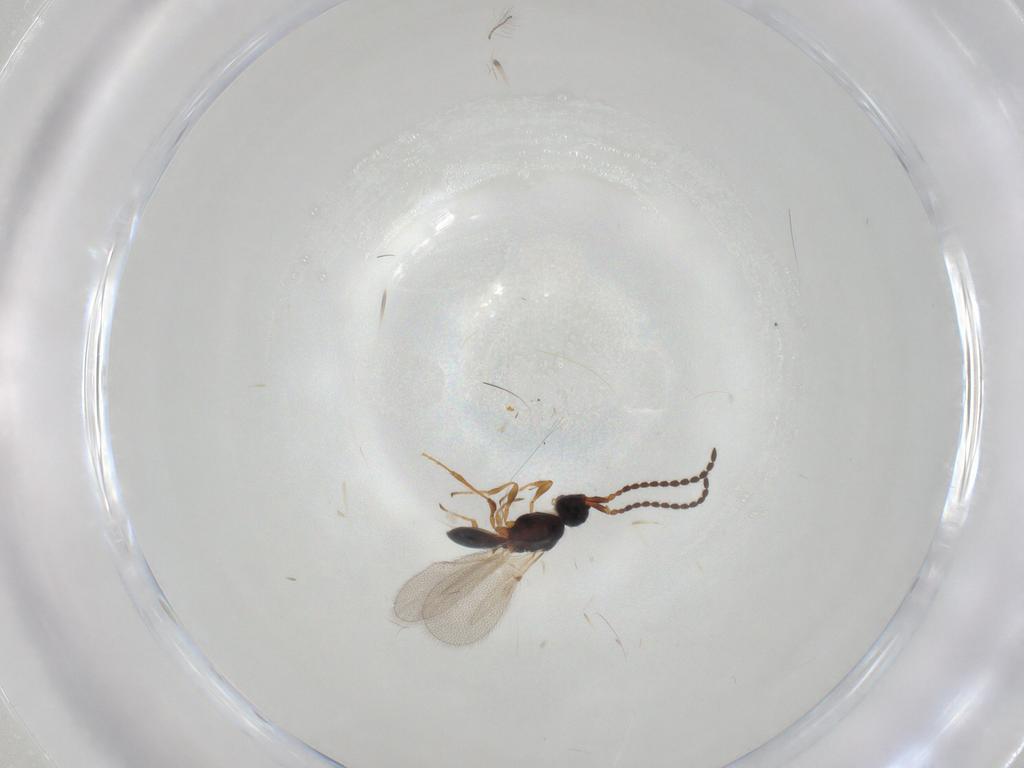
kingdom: Animalia
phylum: Arthropoda
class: Insecta
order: Hymenoptera
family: Diapriidae
